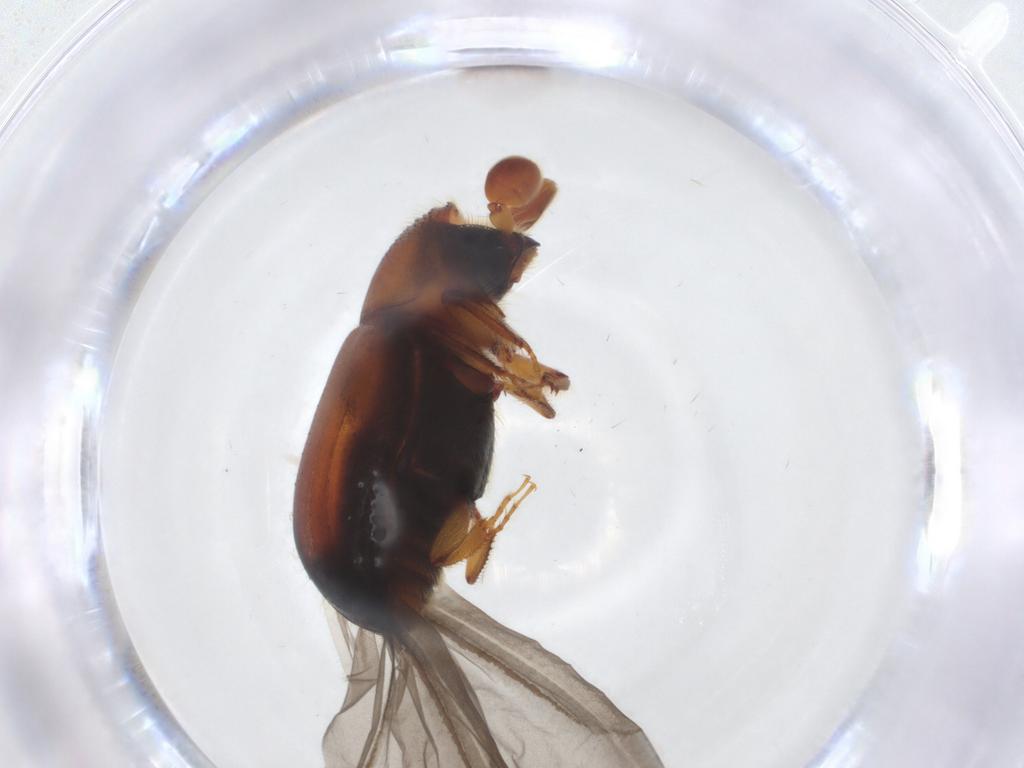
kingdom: Animalia
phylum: Arthropoda
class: Insecta
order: Coleoptera
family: Curculionidae
